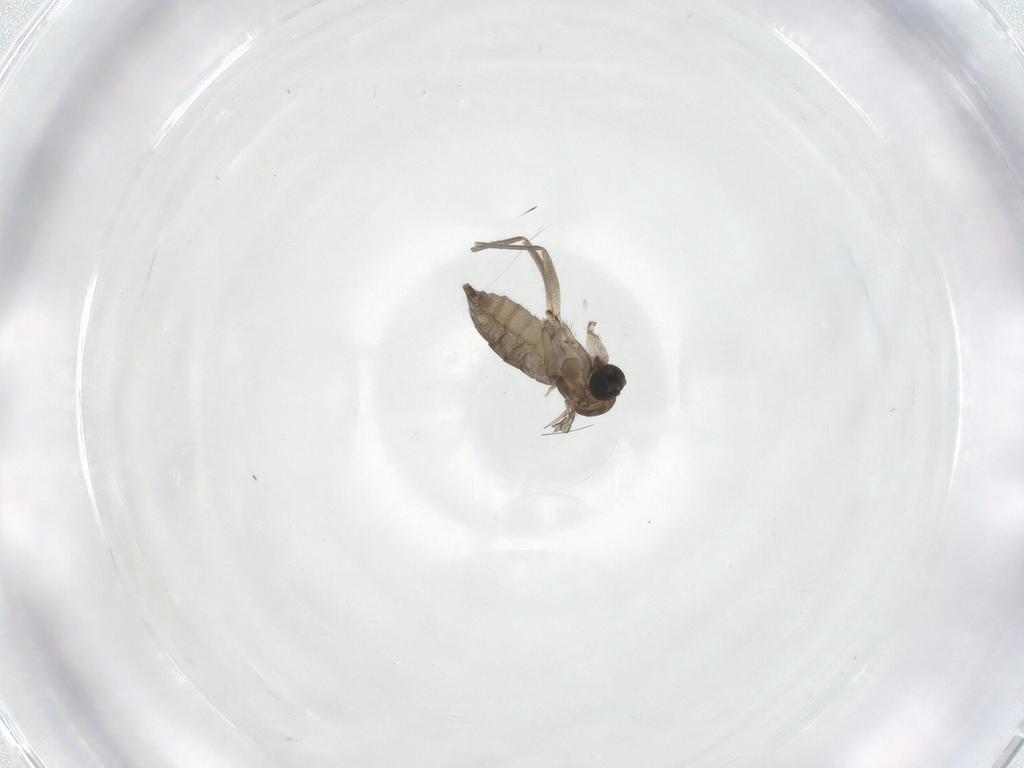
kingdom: Animalia
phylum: Arthropoda
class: Insecta
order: Diptera
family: Sciaridae
